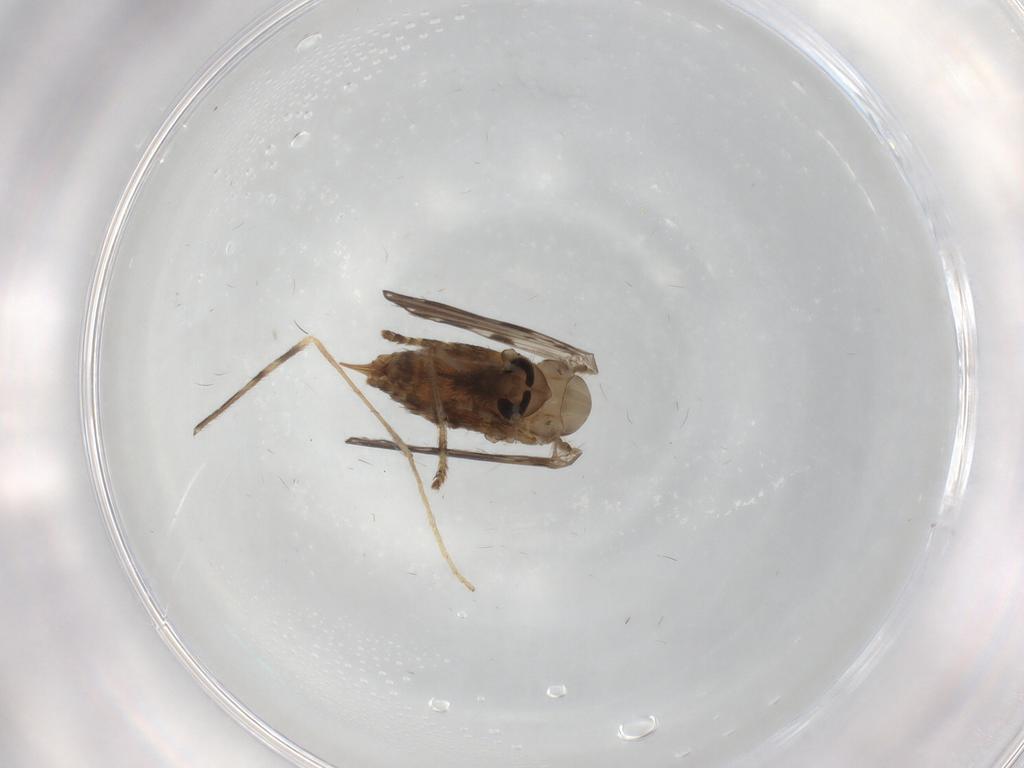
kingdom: Animalia
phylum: Arthropoda
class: Insecta
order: Diptera
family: Psychodidae
